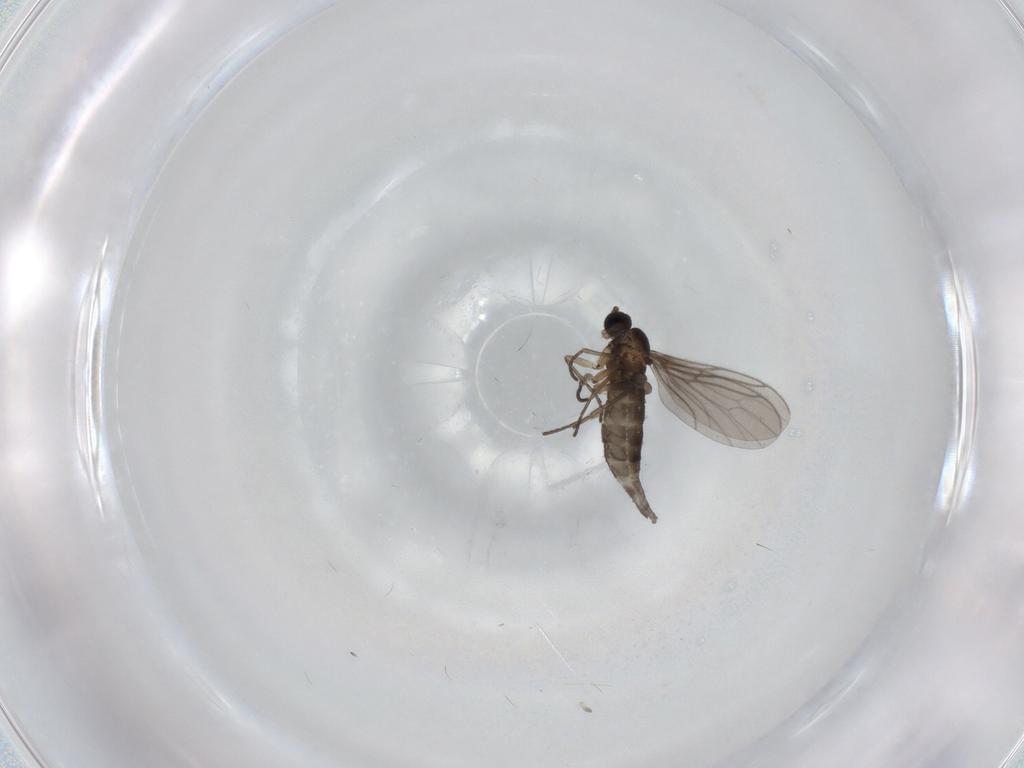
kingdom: Animalia
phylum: Arthropoda
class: Insecta
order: Diptera
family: Sciaridae
